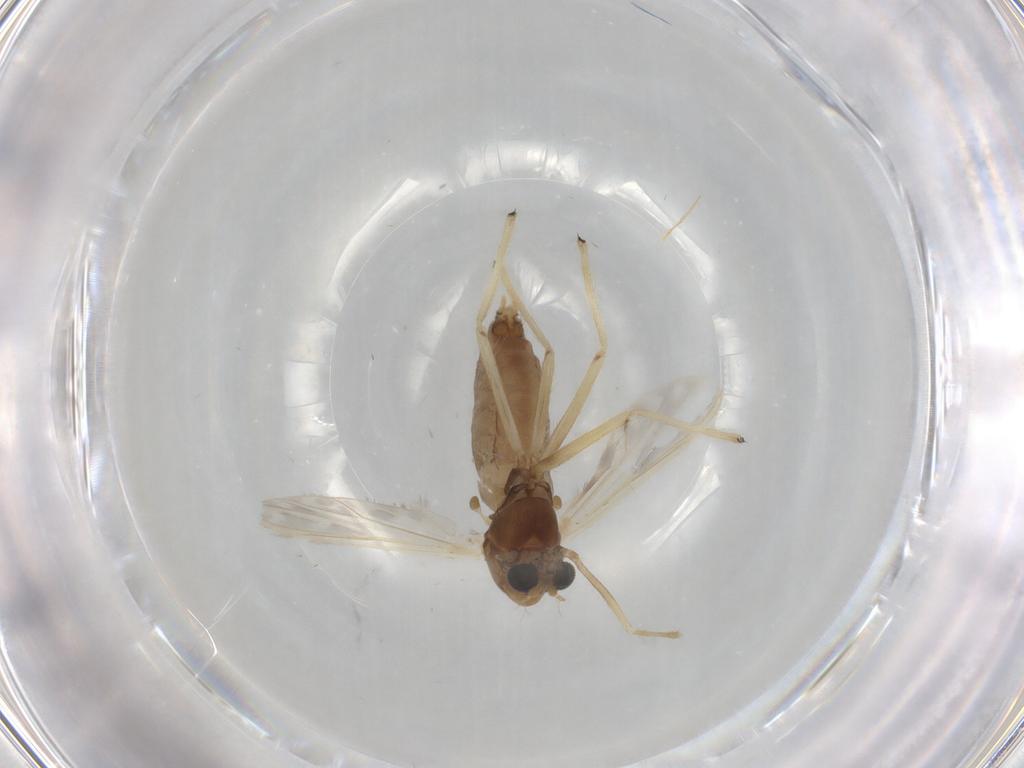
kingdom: Animalia
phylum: Arthropoda
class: Insecta
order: Diptera
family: Chironomidae
